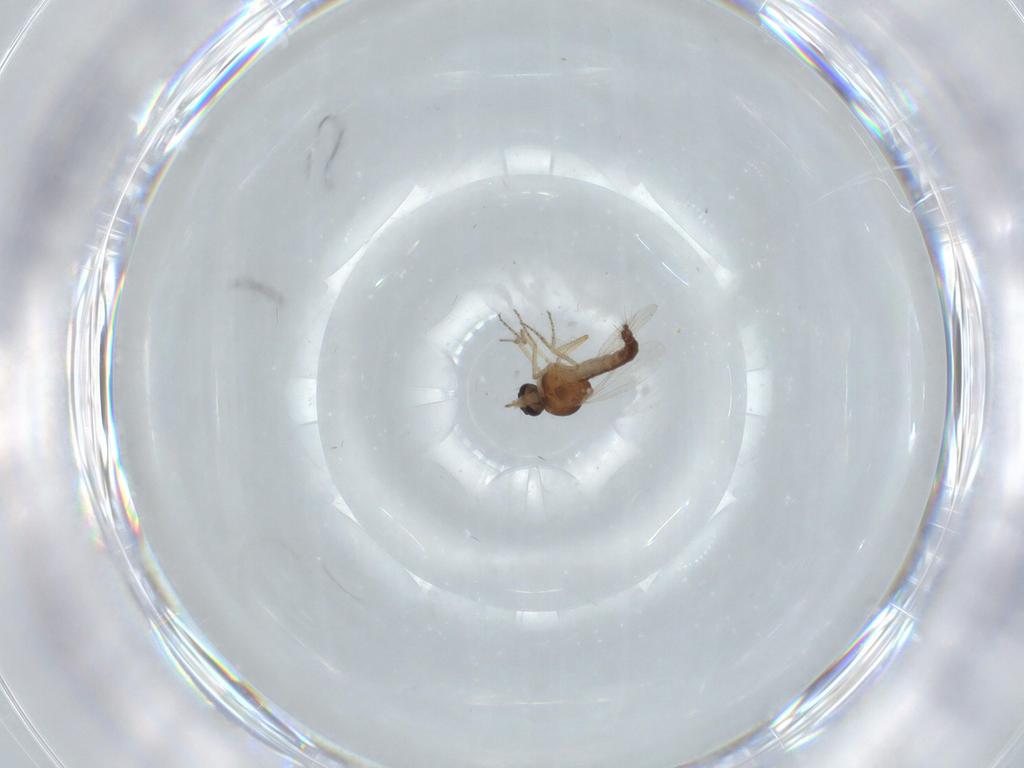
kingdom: Animalia
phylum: Arthropoda
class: Insecta
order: Diptera
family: Ceratopogonidae
